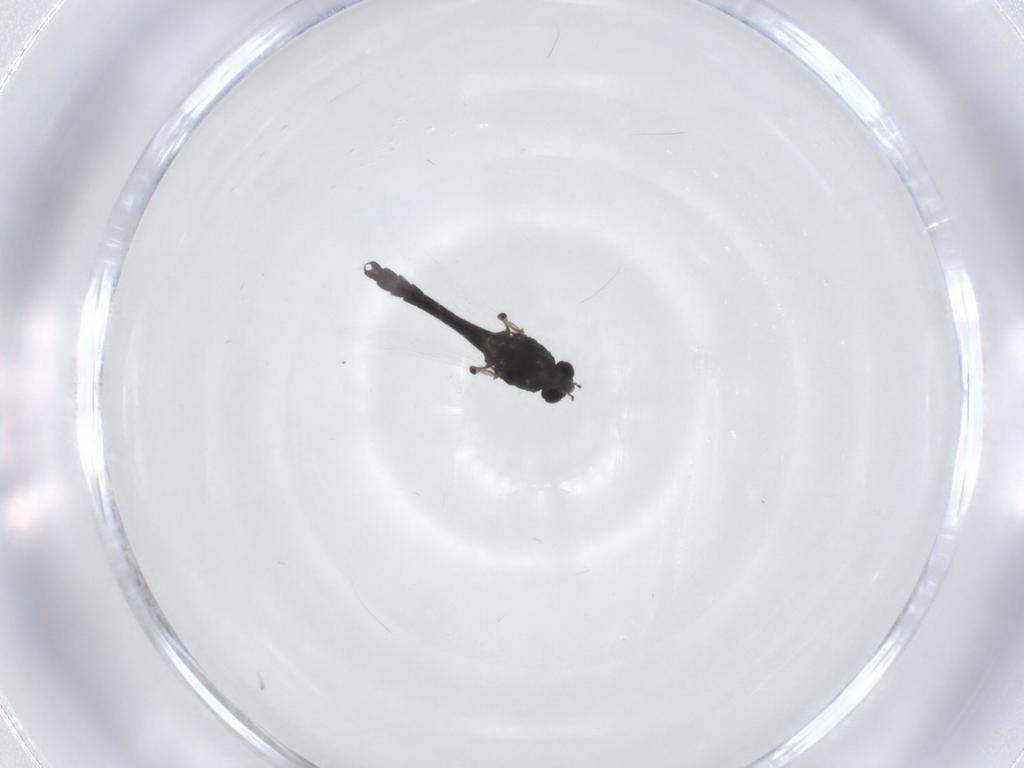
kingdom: Animalia
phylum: Arthropoda
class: Insecta
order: Diptera
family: Chironomidae
